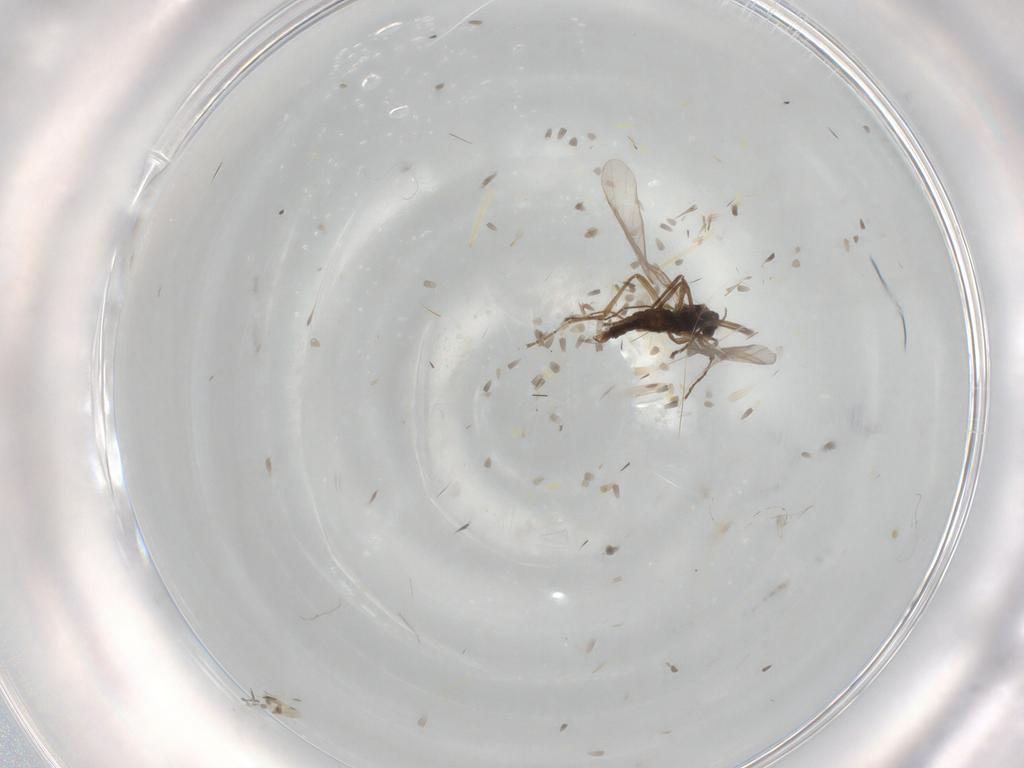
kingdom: Animalia
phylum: Arthropoda
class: Insecta
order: Diptera
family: Cecidomyiidae
